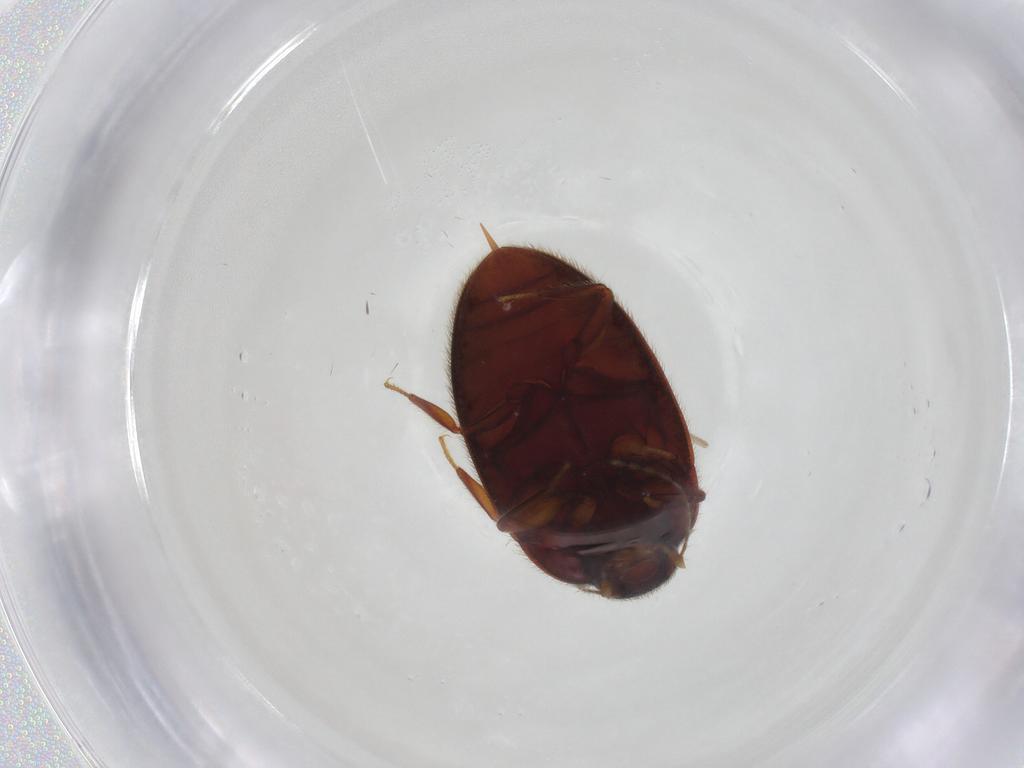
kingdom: Animalia
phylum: Arthropoda
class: Insecta
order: Coleoptera
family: Limnichidae
